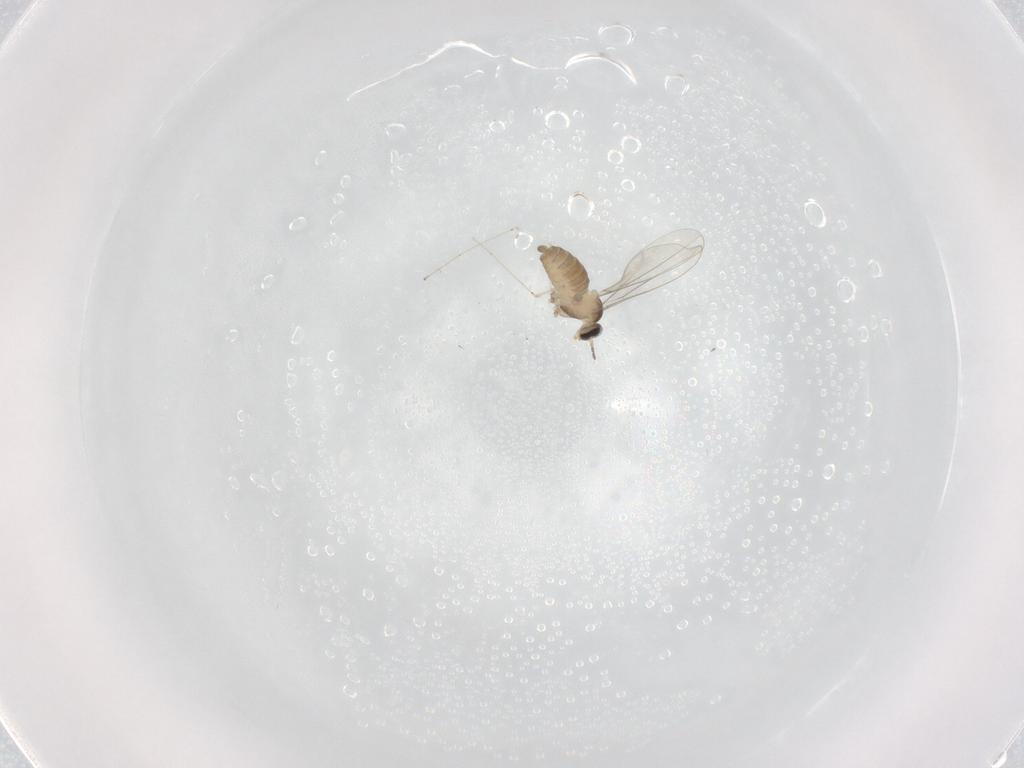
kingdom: Animalia
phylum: Arthropoda
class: Insecta
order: Diptera
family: Cecidomyiidae
